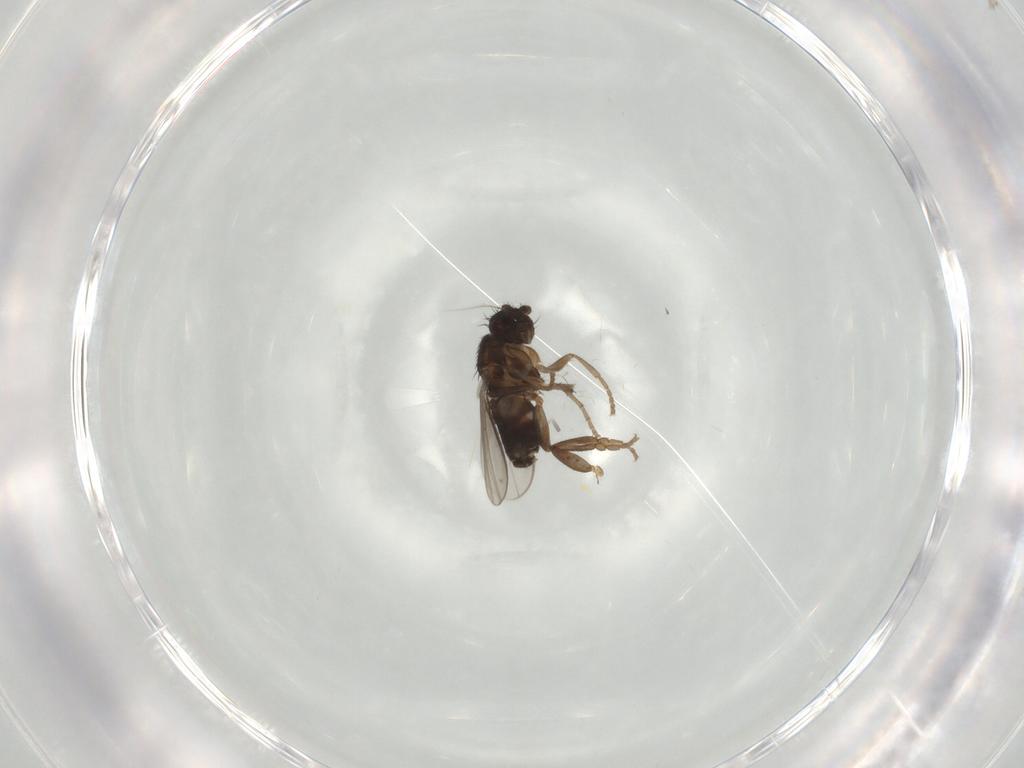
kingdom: Animalia
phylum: Arthropoda
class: Insecta
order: Diptera
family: Sphaeroceridae
